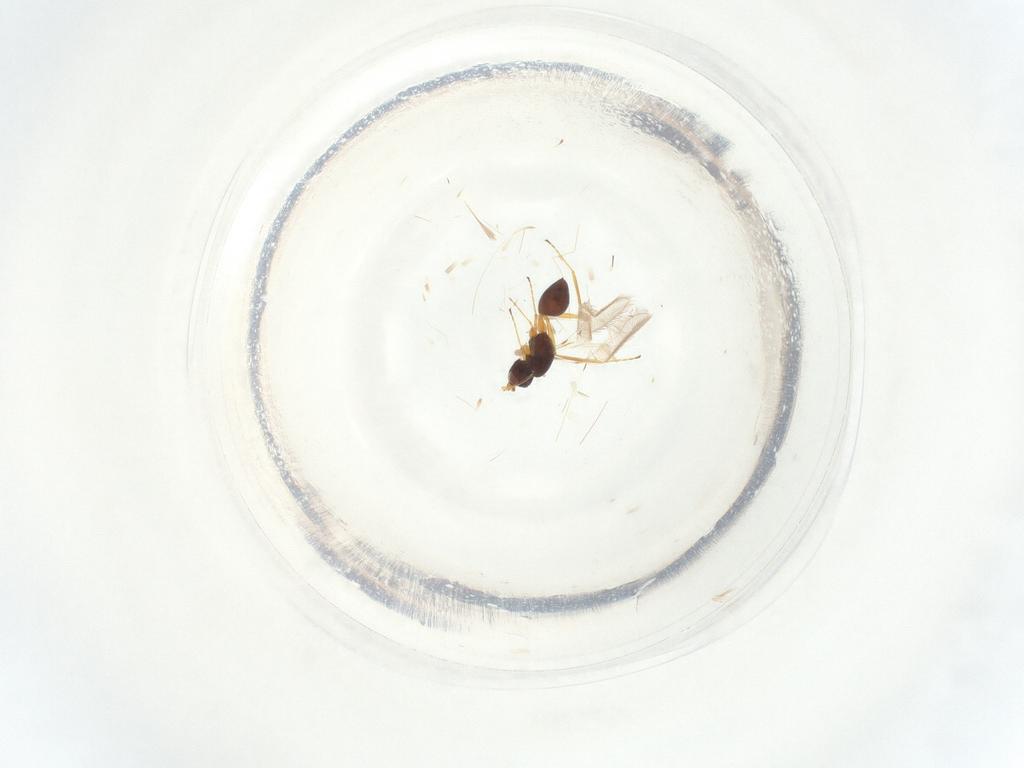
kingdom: Animalia
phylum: Arthropoda
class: Insecta
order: Hymenoptera
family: Mymaridae
